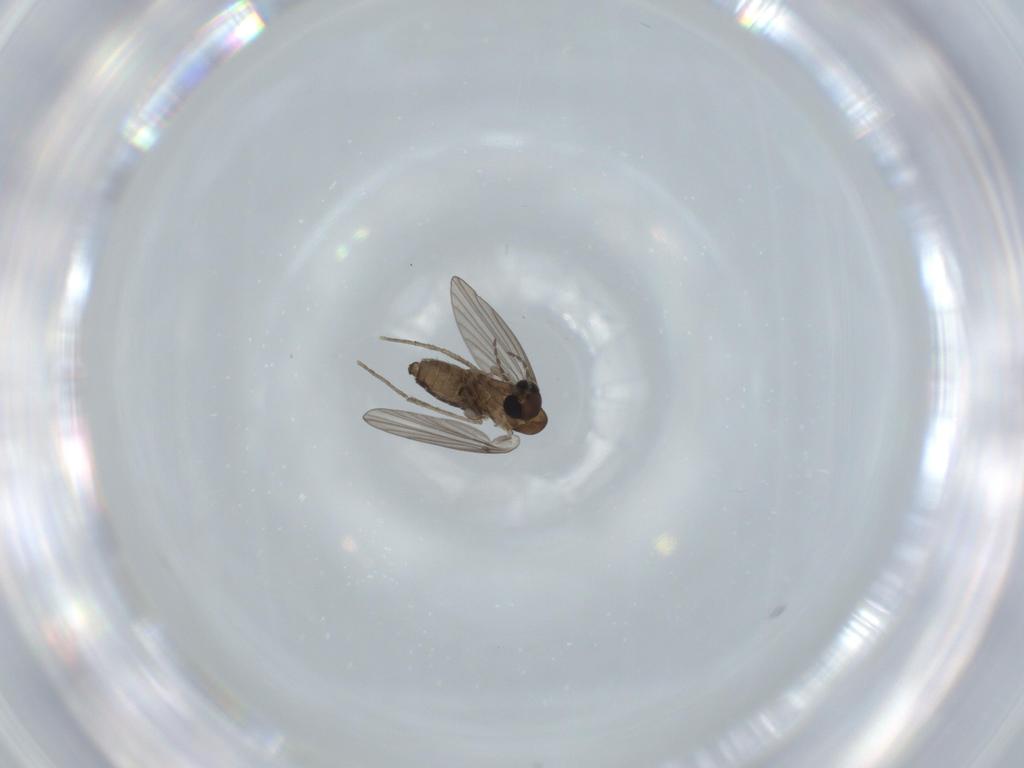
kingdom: Animalia
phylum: Arthropoda
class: Insecta
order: Diptera
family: Psychodidae
